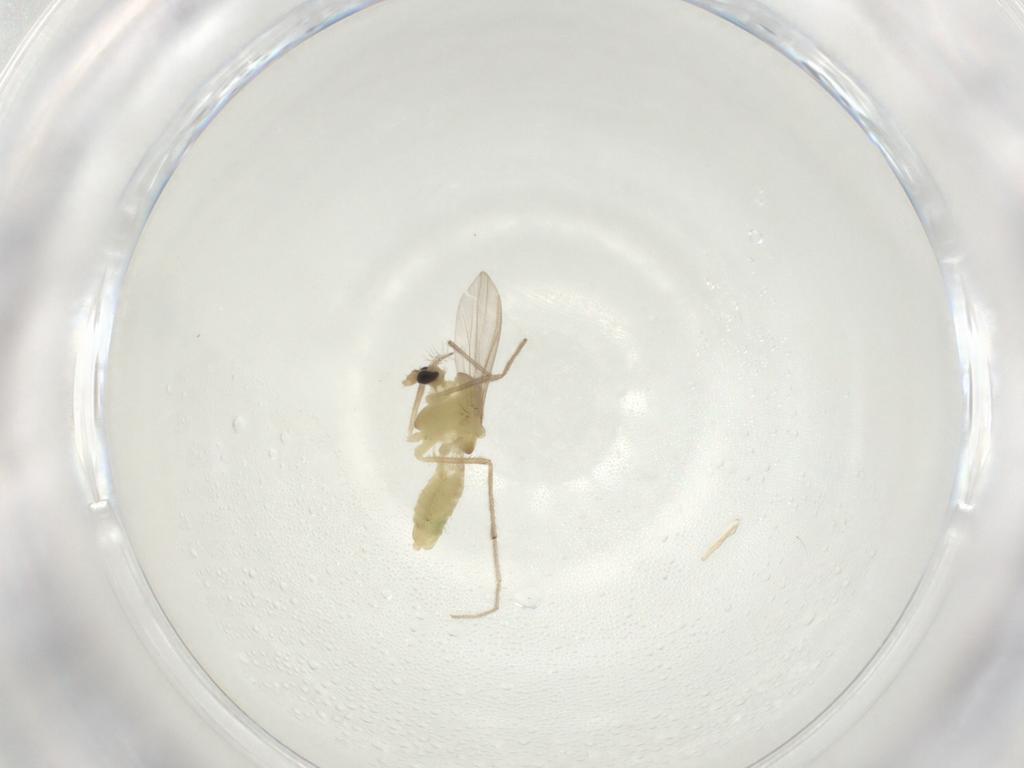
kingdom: Animalia
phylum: Arthropoda
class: Insecta
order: Diptera
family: Chironomidae
